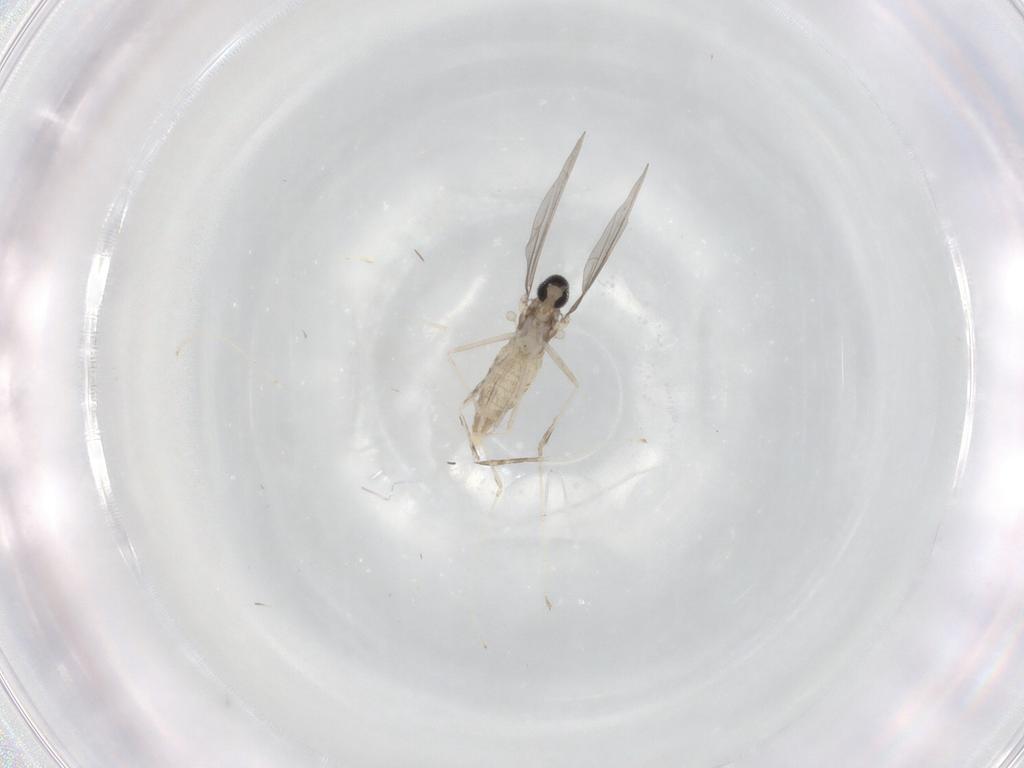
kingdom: Animalia
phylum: Arthropoda
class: Insecta
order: Diptera
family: Cecidomyiidae
